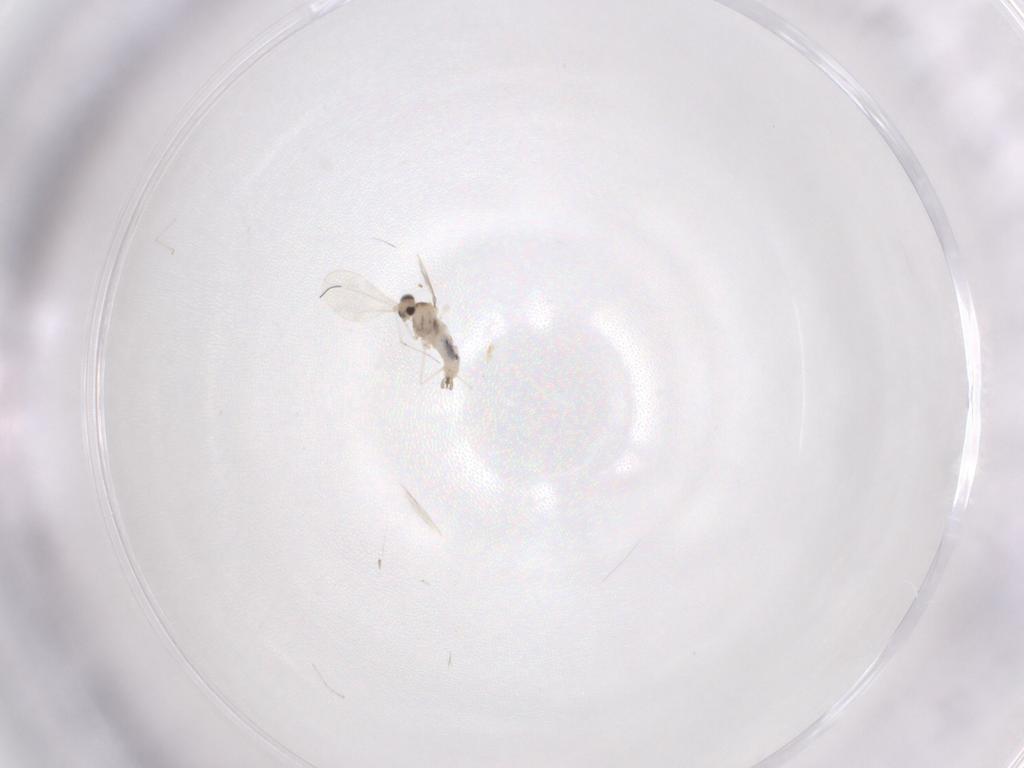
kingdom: Animalia
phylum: Arthropoda
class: Insecta
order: Diptera
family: Cecidomyiidae
